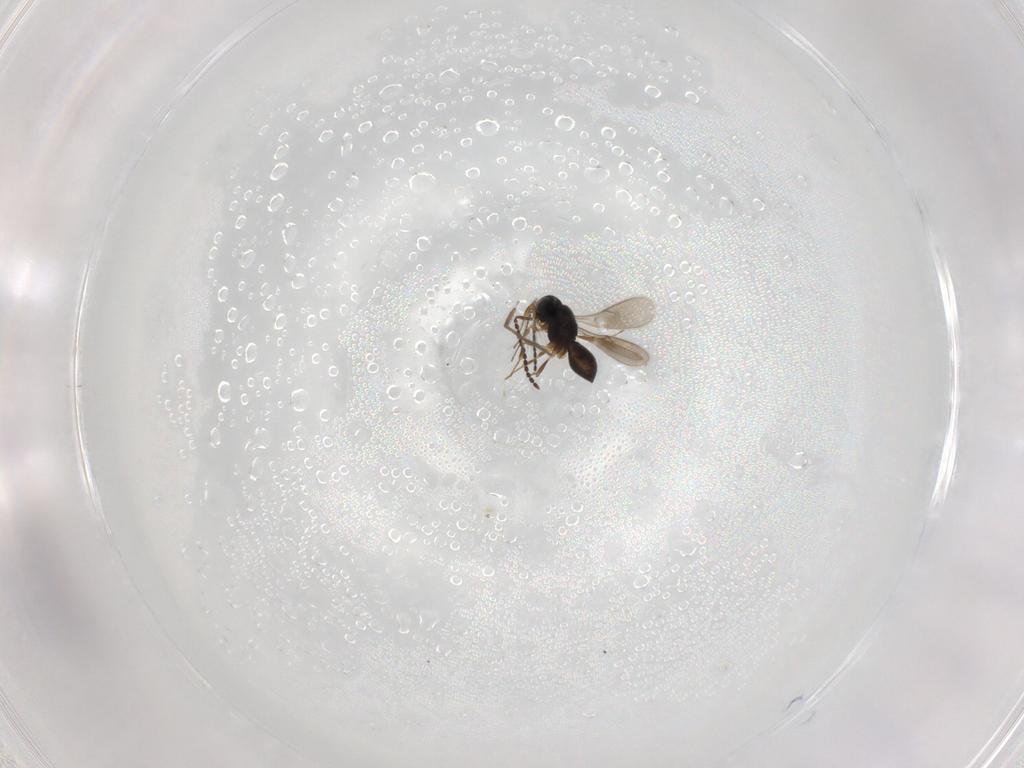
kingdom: Animalia
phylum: Arthropoda
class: Insecta
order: Hymenoptera
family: Scelionidae
